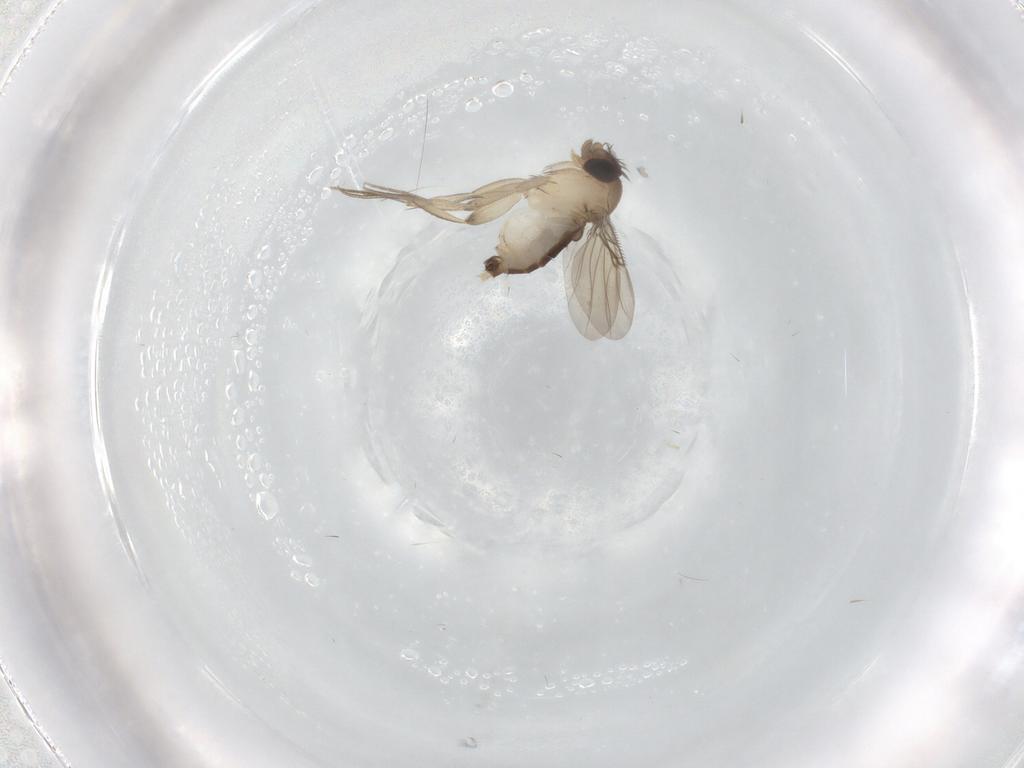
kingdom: Animalia
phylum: Arthropoda
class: Insecta
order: Diptera
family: Phoridae
